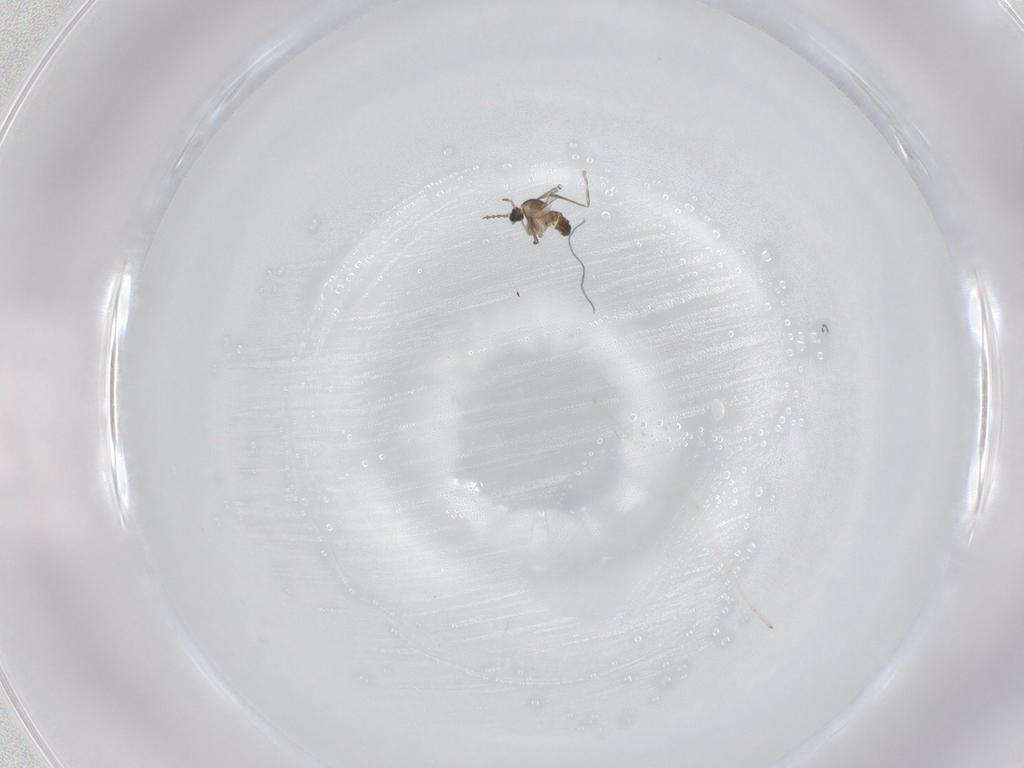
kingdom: Animalia
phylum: Arthropoda
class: Insecta
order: Diptera
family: Cecidomyiidae
